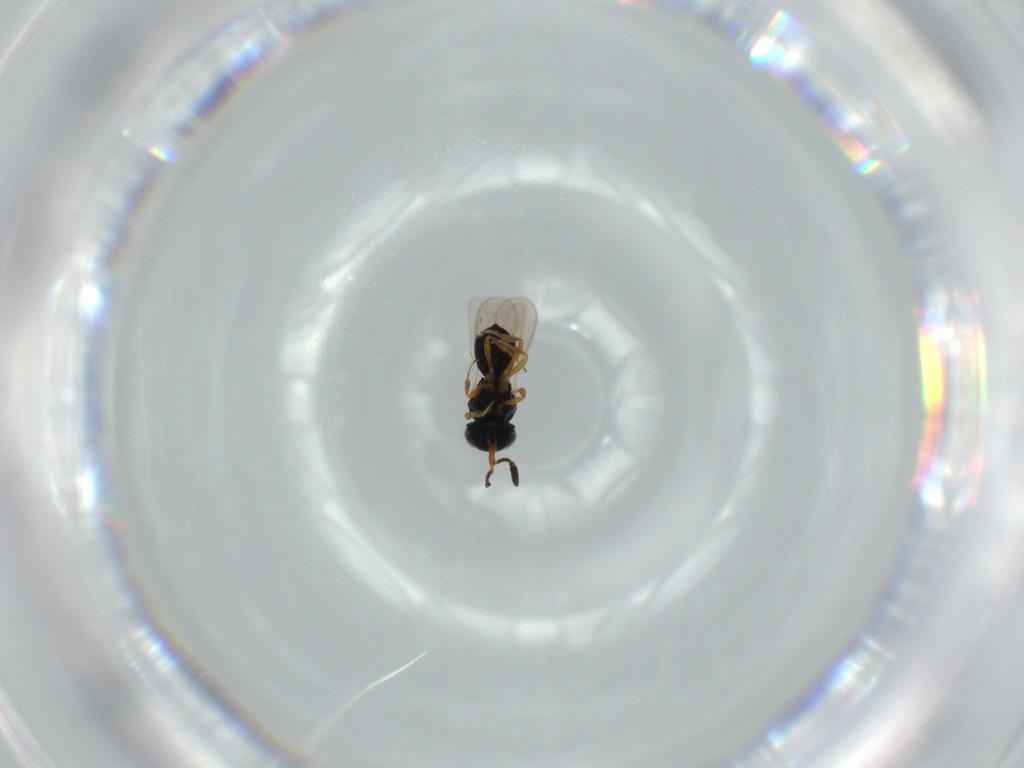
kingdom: Animalia
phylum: Arthropoda
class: Insecta
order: Hymenoptera
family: Scelionidae
